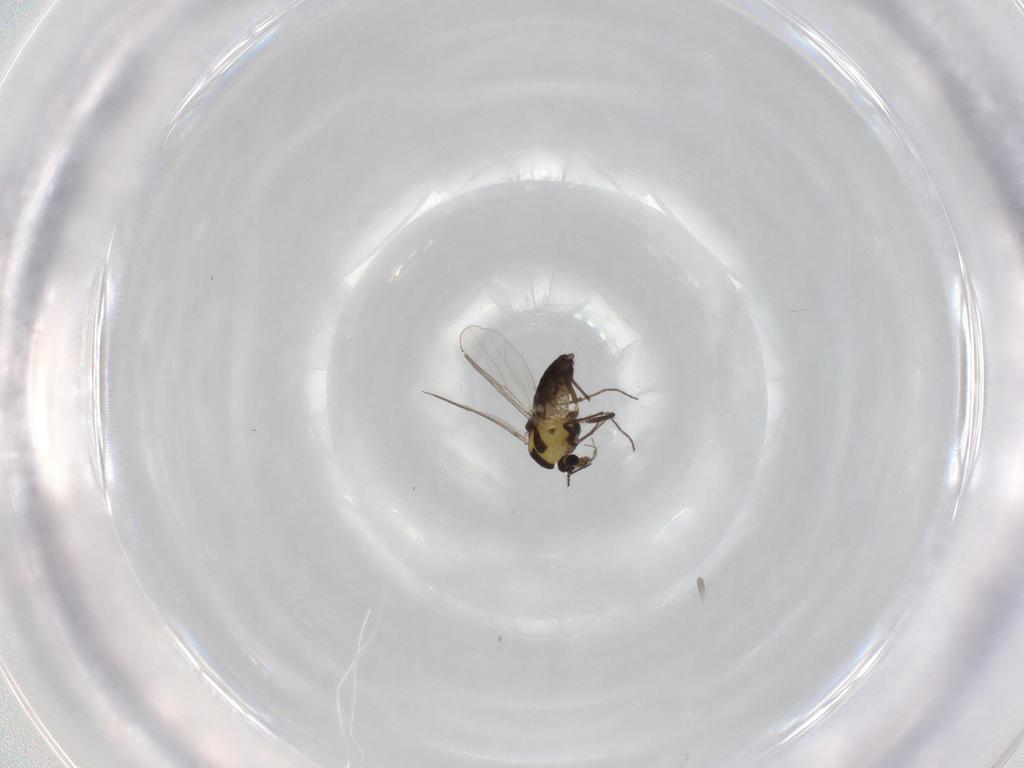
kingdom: Animalia
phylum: Arthropoda
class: Insecta
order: Diptera
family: Chironomidae
